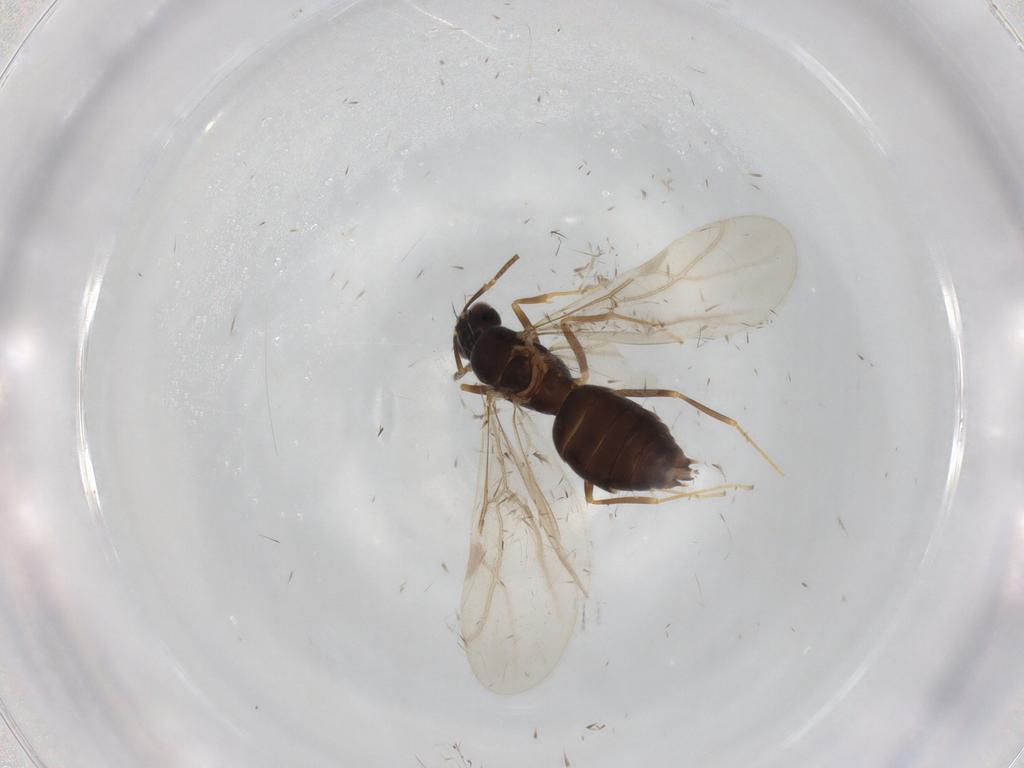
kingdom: Animalia
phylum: Arthropoda
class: Insecta
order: Hymenoptera
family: Formicidae
